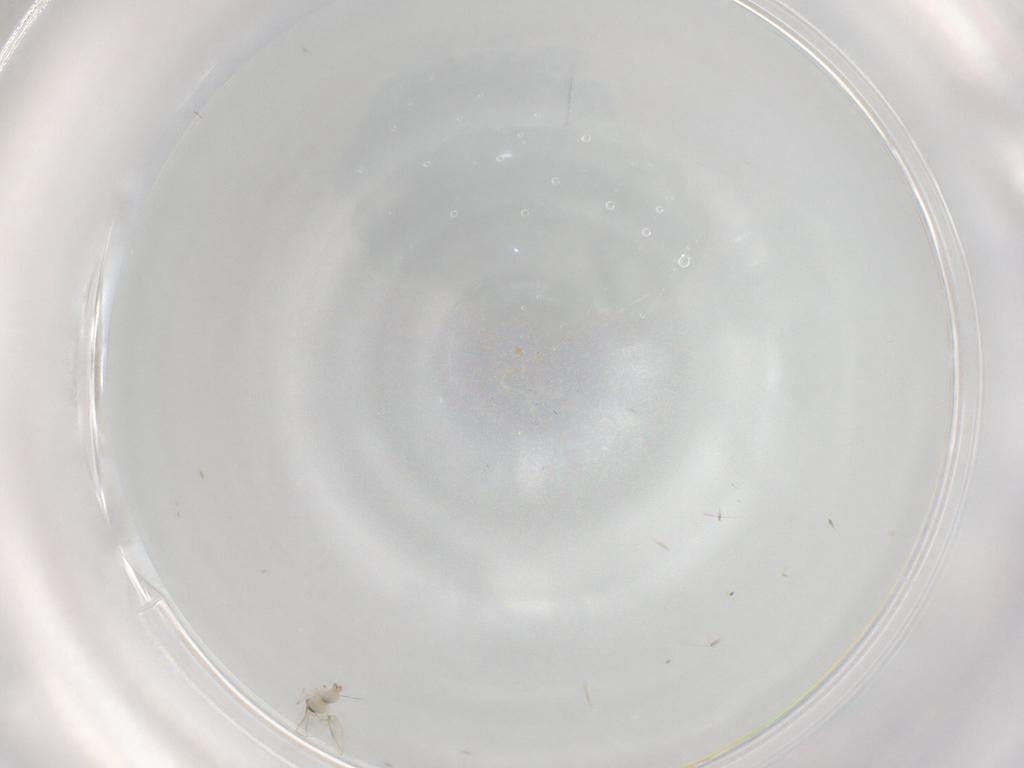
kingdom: Animalia
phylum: Arthropoda
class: Insecta
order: Diptera
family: Cecidomyiidae
